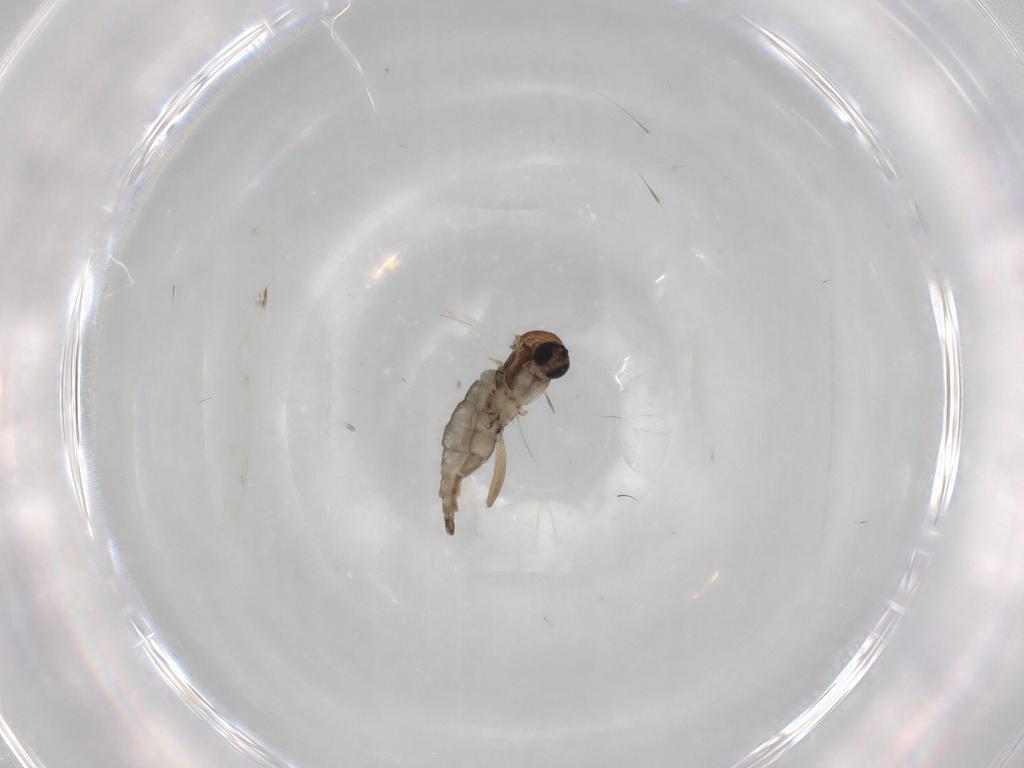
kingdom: Animalia
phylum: Arthropoda
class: Insecta
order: Diptera
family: Sciaridae
